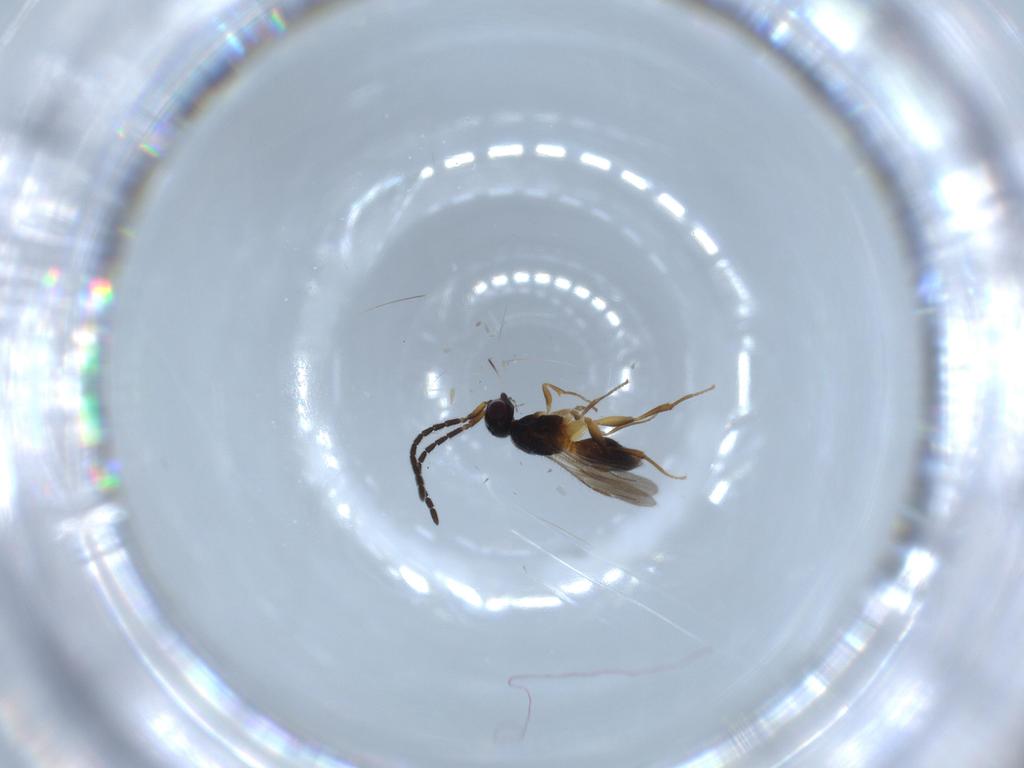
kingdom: Animalia
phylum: Arthropoda
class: Insecta
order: Hymenoptera
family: Megaspilidae
